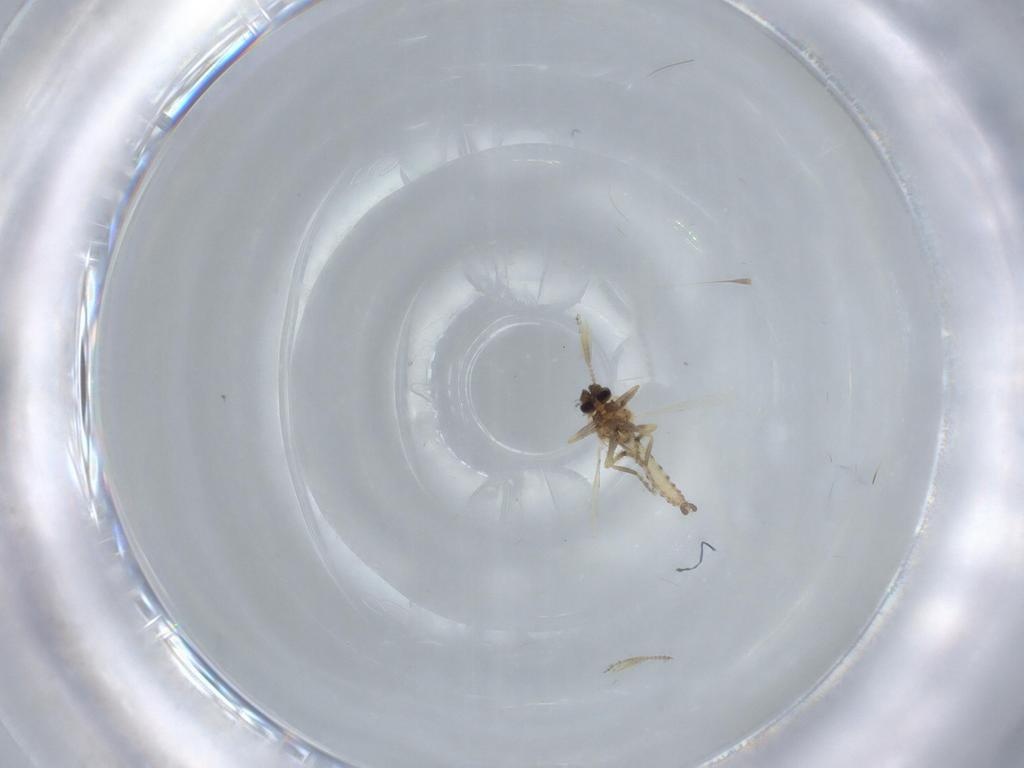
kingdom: Animalia
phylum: Arthropoda
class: Insecta
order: Diptera
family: Ceratopogonidae
